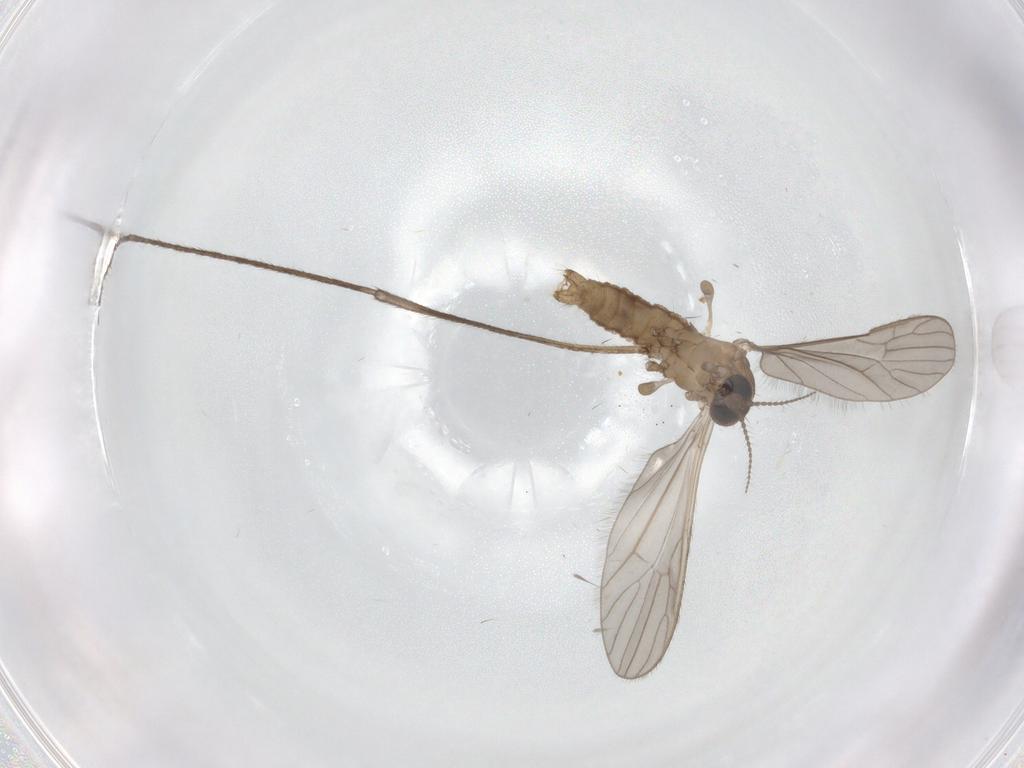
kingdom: Animalia
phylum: Arthropoda
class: Insecta
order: Diptera
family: Limoniidae
